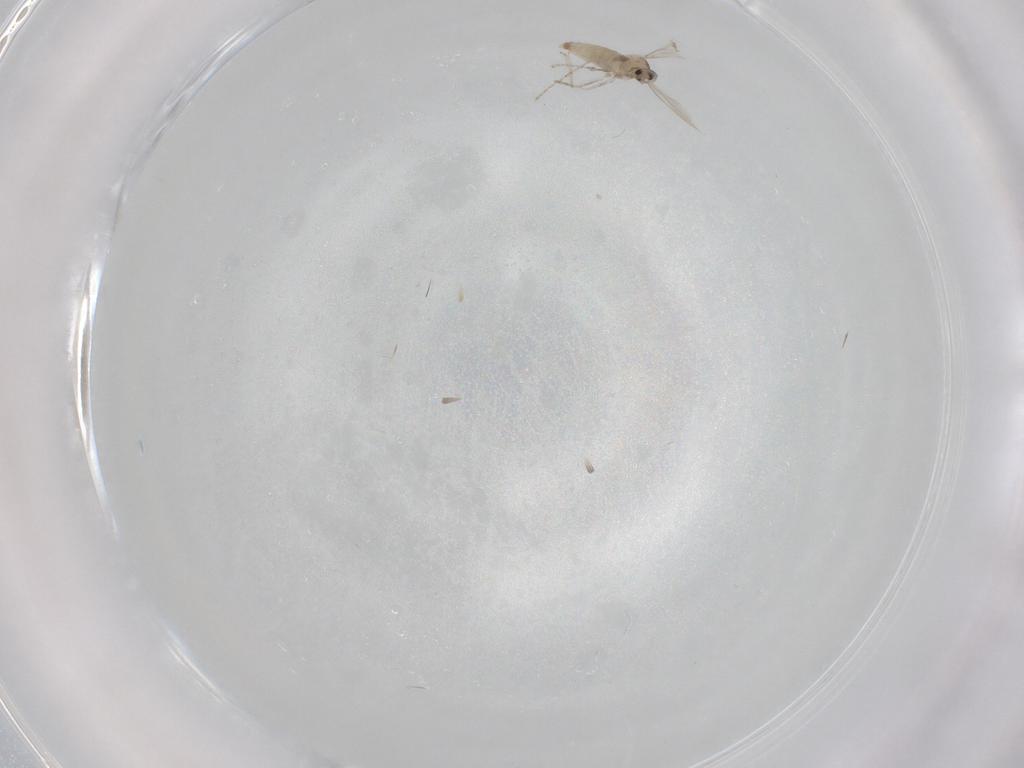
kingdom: Animalia
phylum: Arthropoda
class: Insecta
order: Diptera
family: Cecidomyiidae
